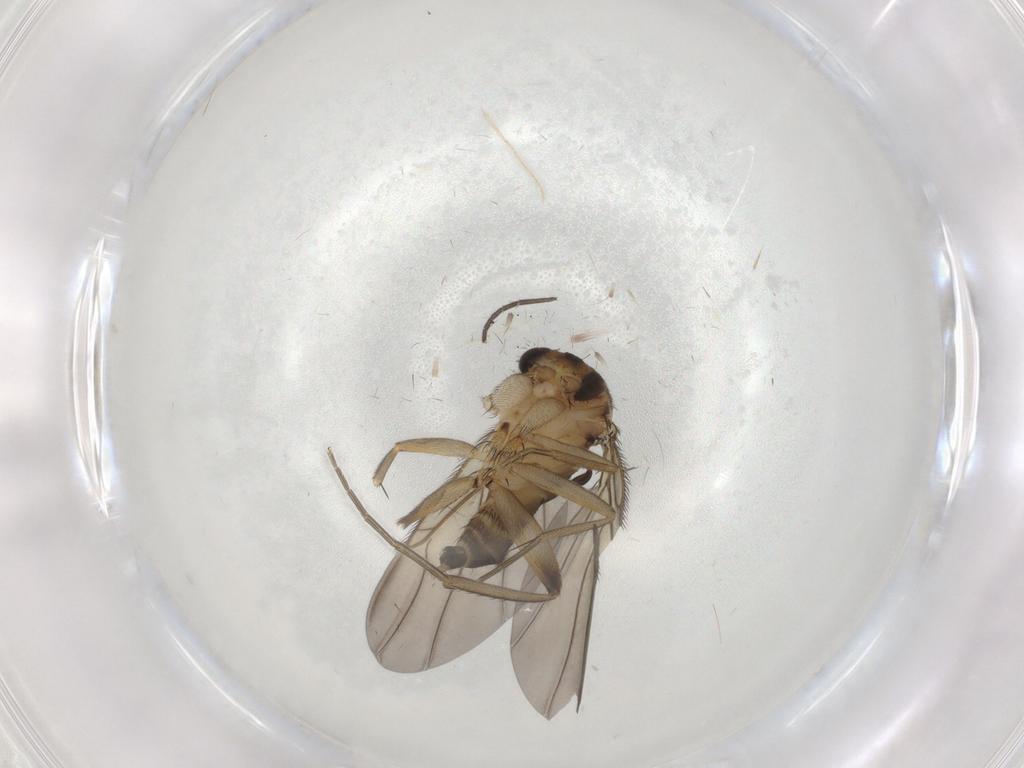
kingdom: Animalia
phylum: Arthropoda
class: Insecta
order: Diptera
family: Phoridae
